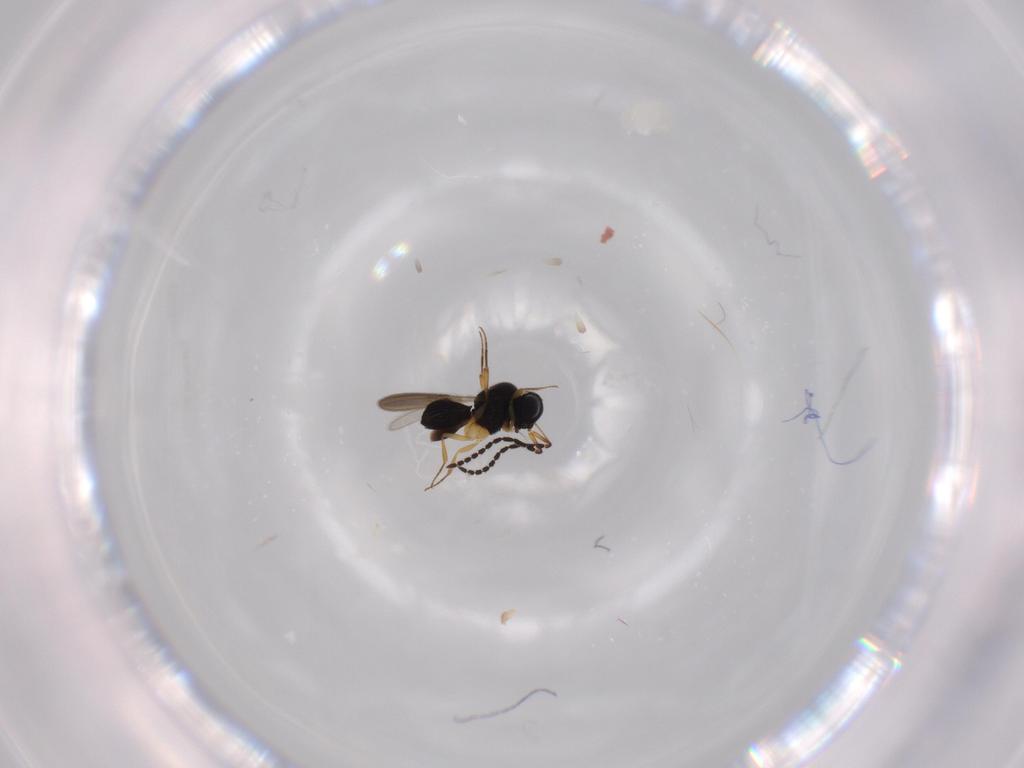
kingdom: Animalia
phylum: Arthropoda
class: Insecta
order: Hymenoptera
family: Scelionidae
